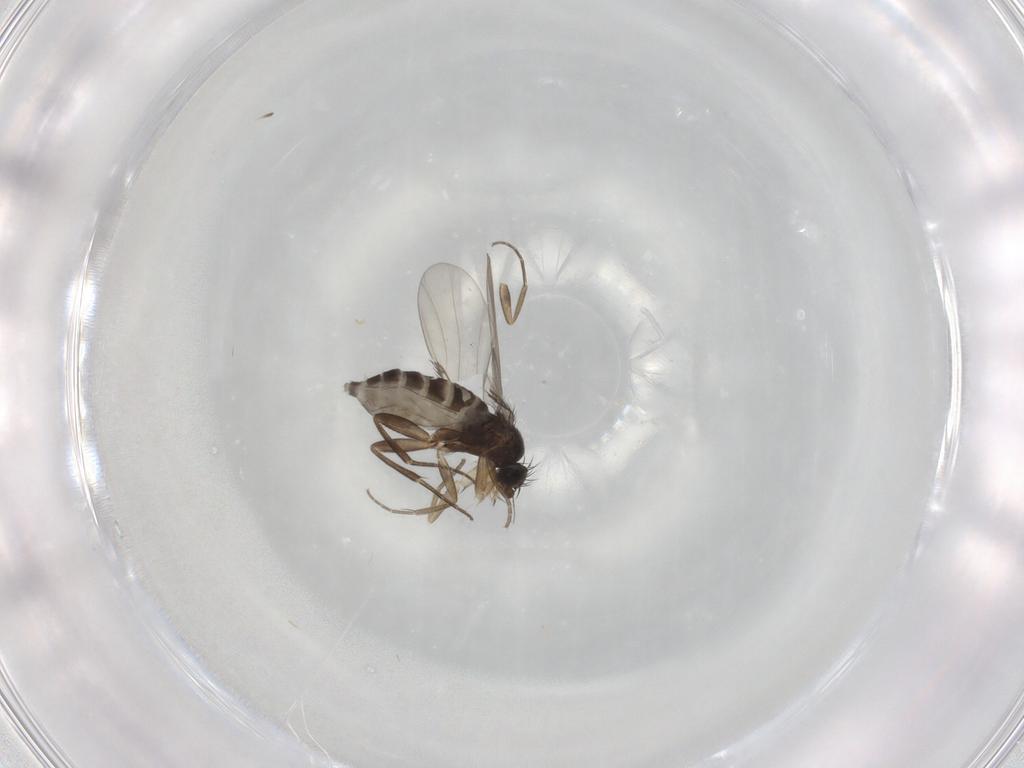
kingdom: Animalia
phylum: Arthropoda
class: Insecta
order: Diptera
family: Phoridae
